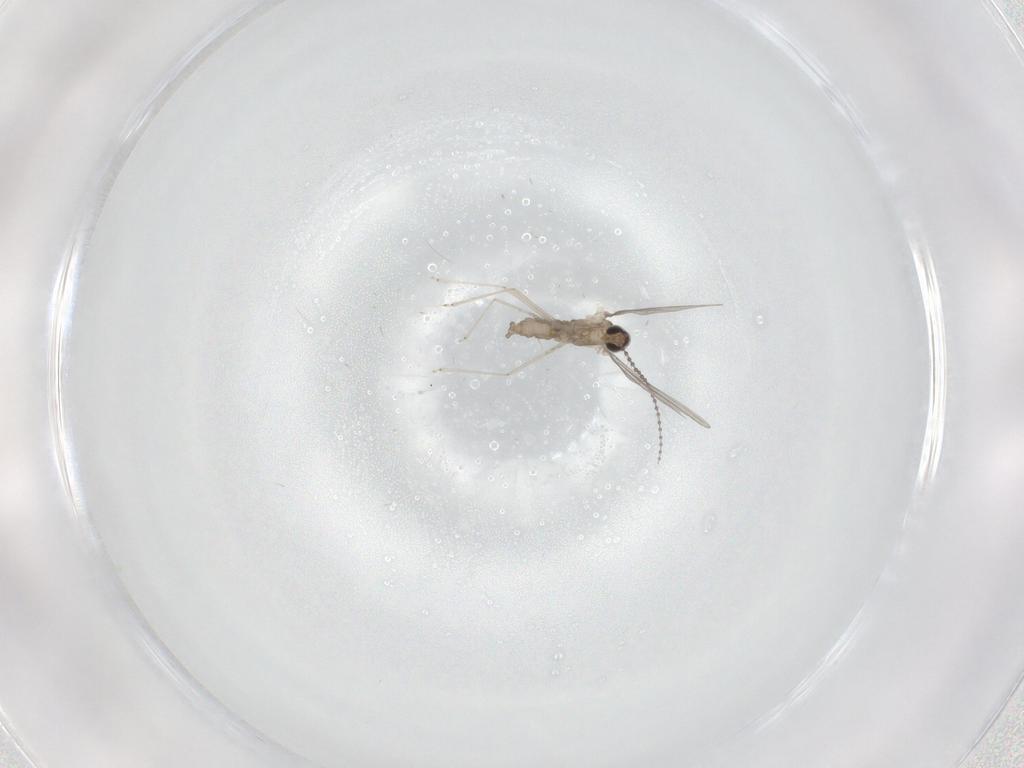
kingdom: Animalia
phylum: Arthropoda
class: Insecta
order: Diptera
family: Cecidomyiidae
